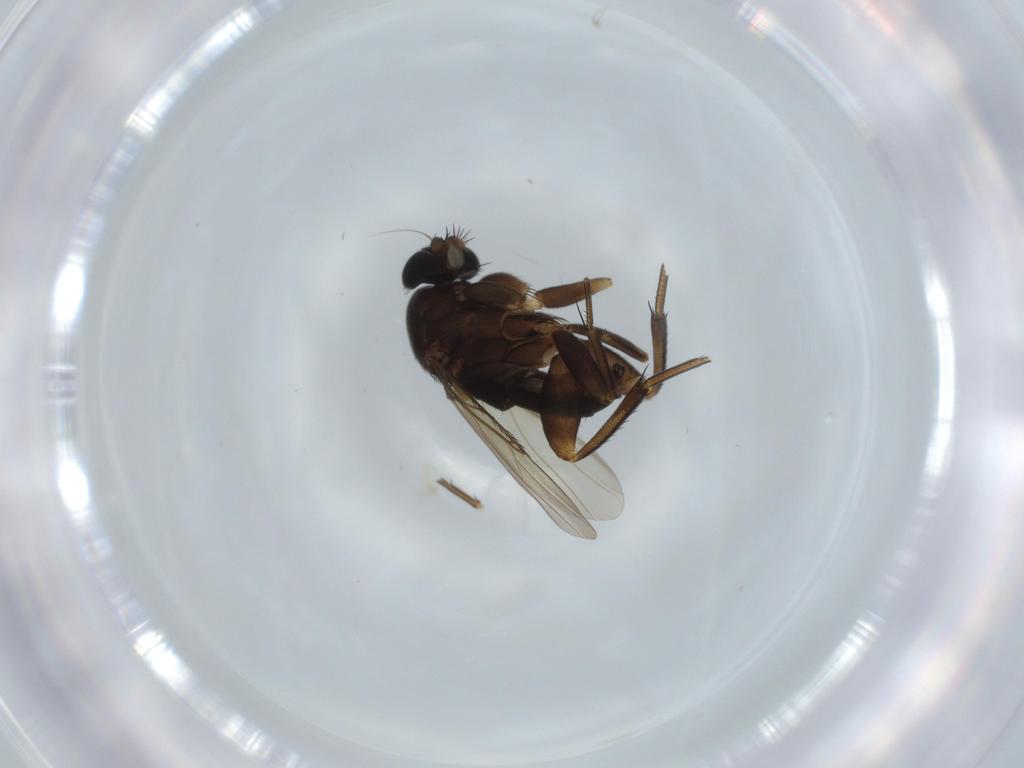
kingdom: Animalia
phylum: Arthropoda
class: Insecta
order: Diptera
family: Phoridae
